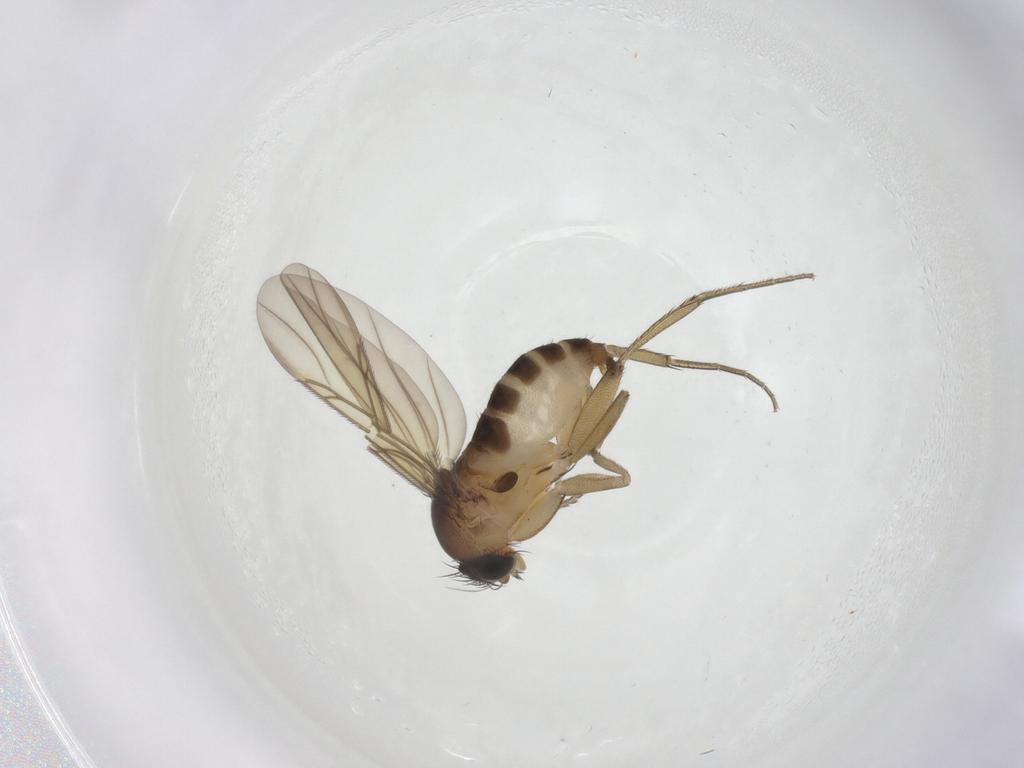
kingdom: Animalia
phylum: Arthropoda
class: Insecta
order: Diptera
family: Phoridae
